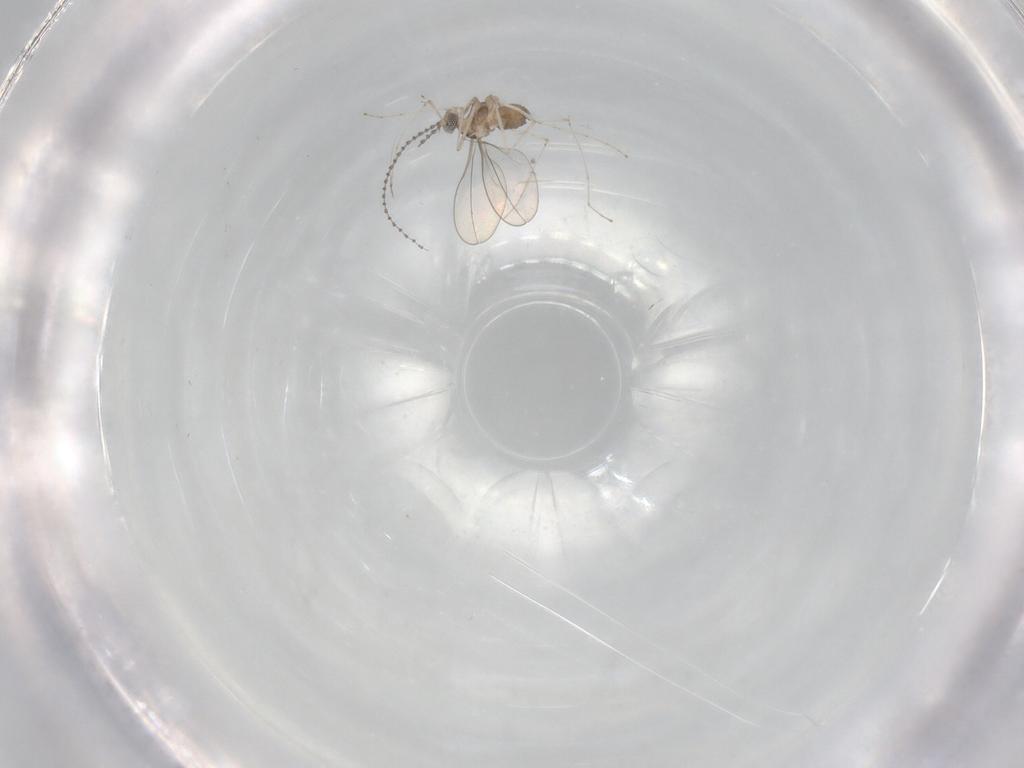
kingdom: Animalia
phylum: Arthropoda
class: Insecta
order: Diptera
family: Cecidomyiidae
